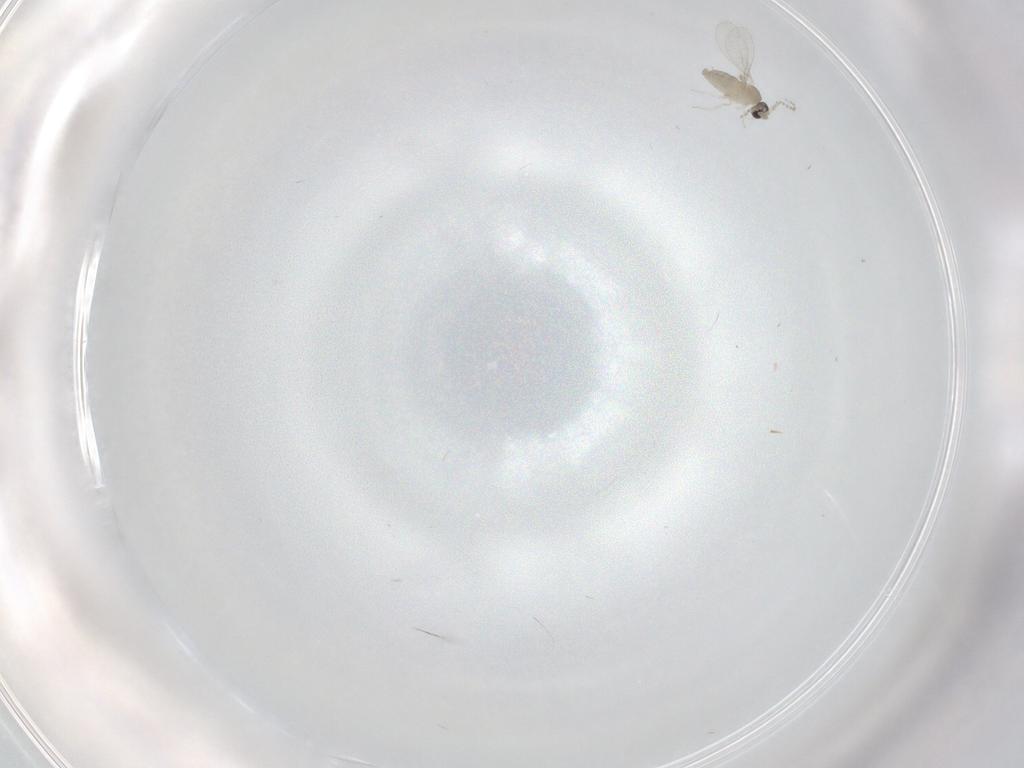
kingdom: Animalia
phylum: Arthropoda
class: Insecta
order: Diptera
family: Cecidomyiidae
